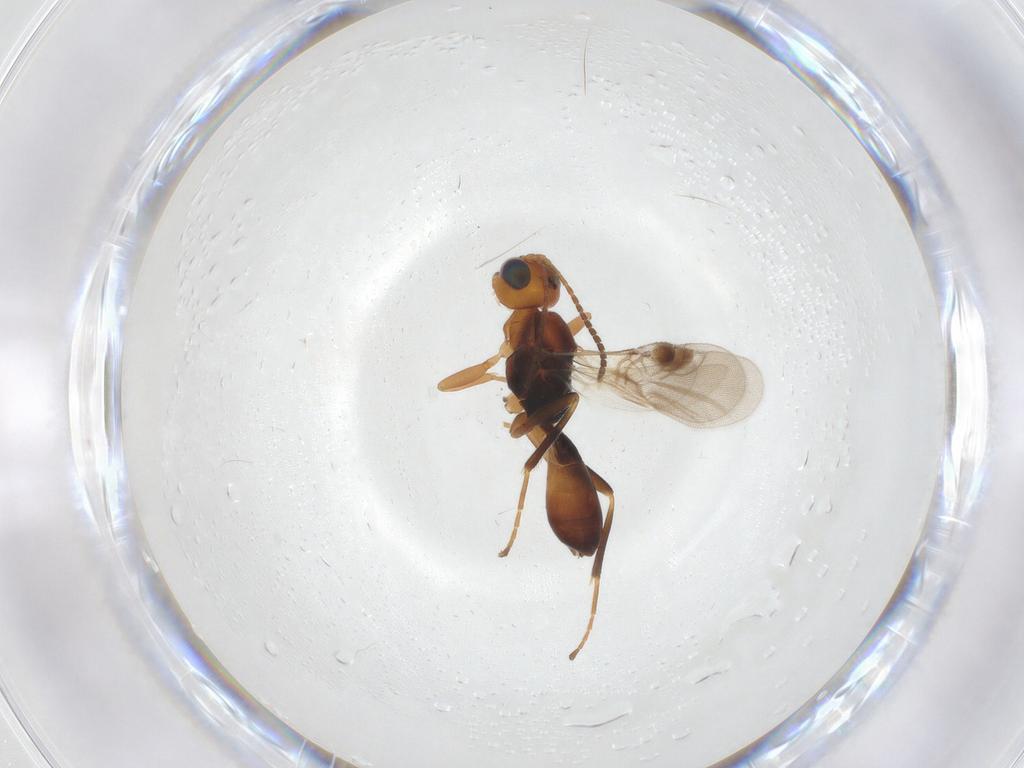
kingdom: Animalia
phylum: Arthropoda
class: Insecta
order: Hymenoptera
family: Braconidae
